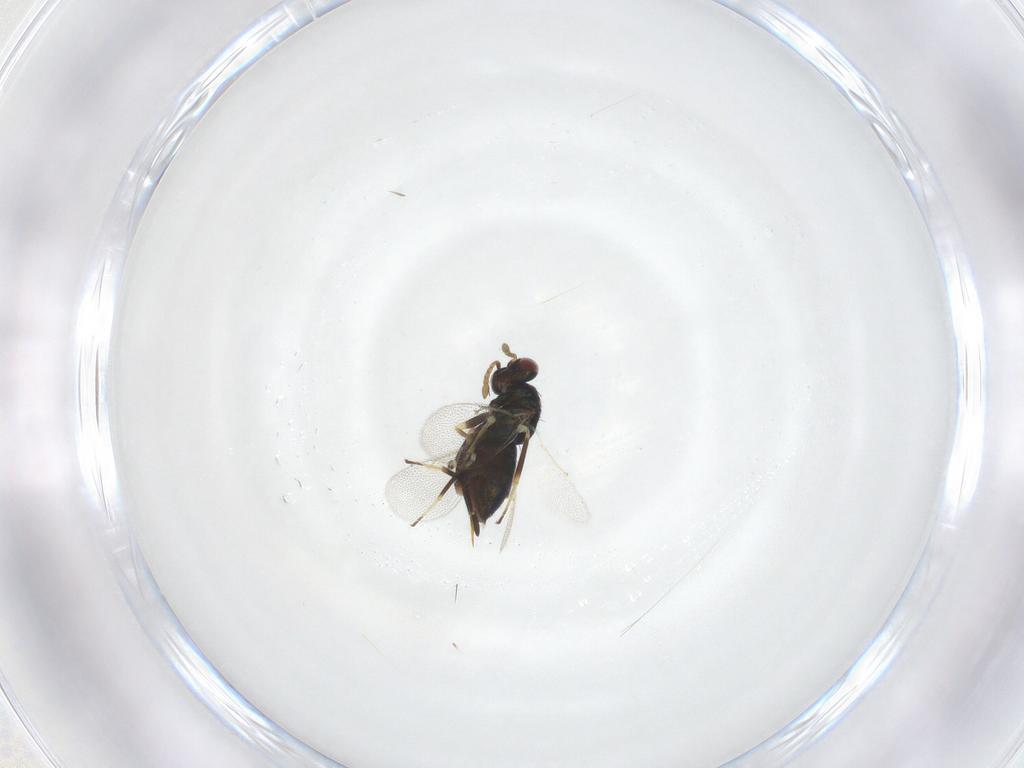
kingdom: Animalia
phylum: Arthropoda
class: Insecta
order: Hymenoptera
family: Eulophidae
